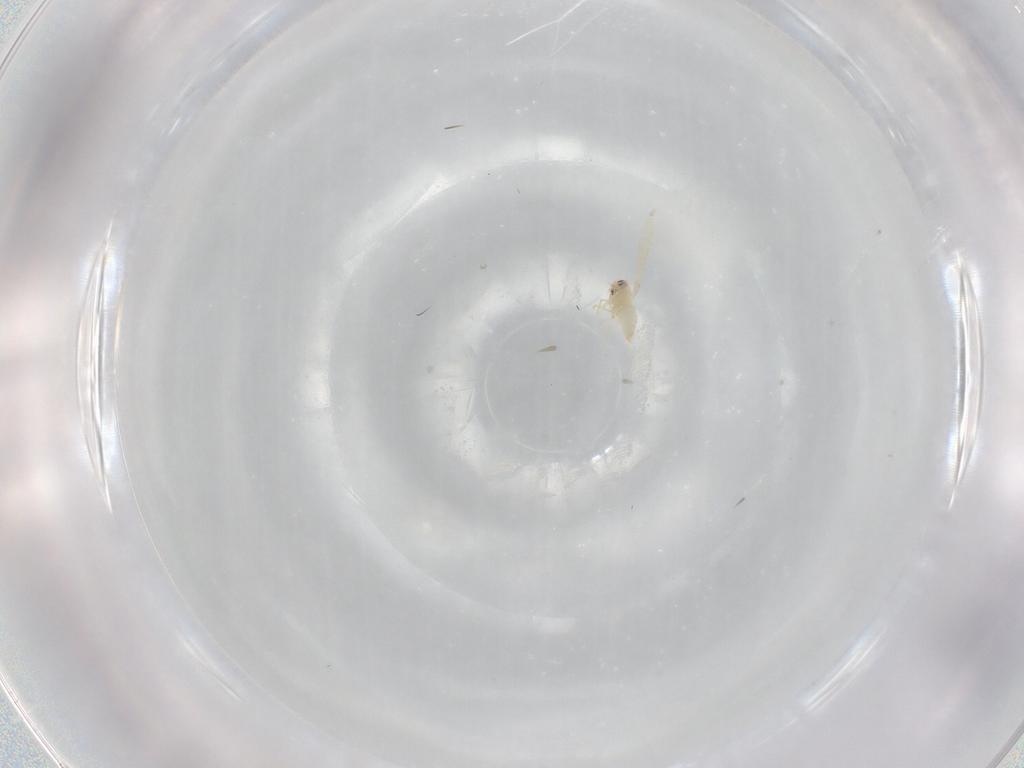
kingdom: Animalia
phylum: Arthropoda
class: Insecta
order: Hemiptera
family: Cicadellidae
